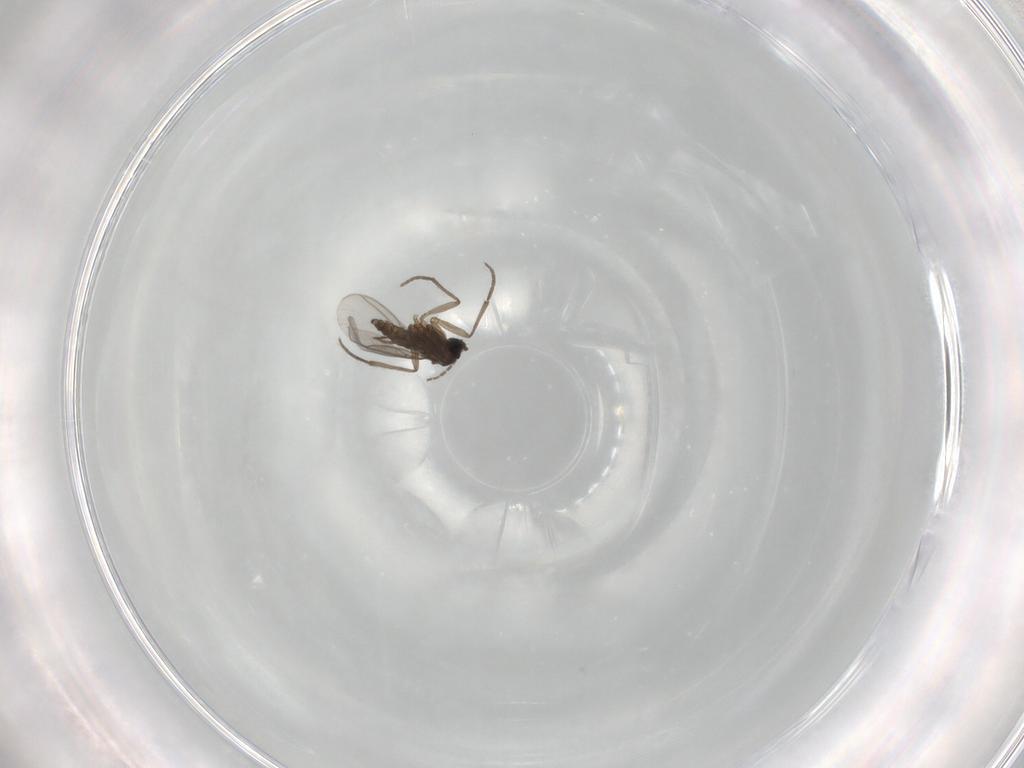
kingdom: Animalia
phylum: Arthropoda
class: Insecta
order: Diptera
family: Sciaridae
